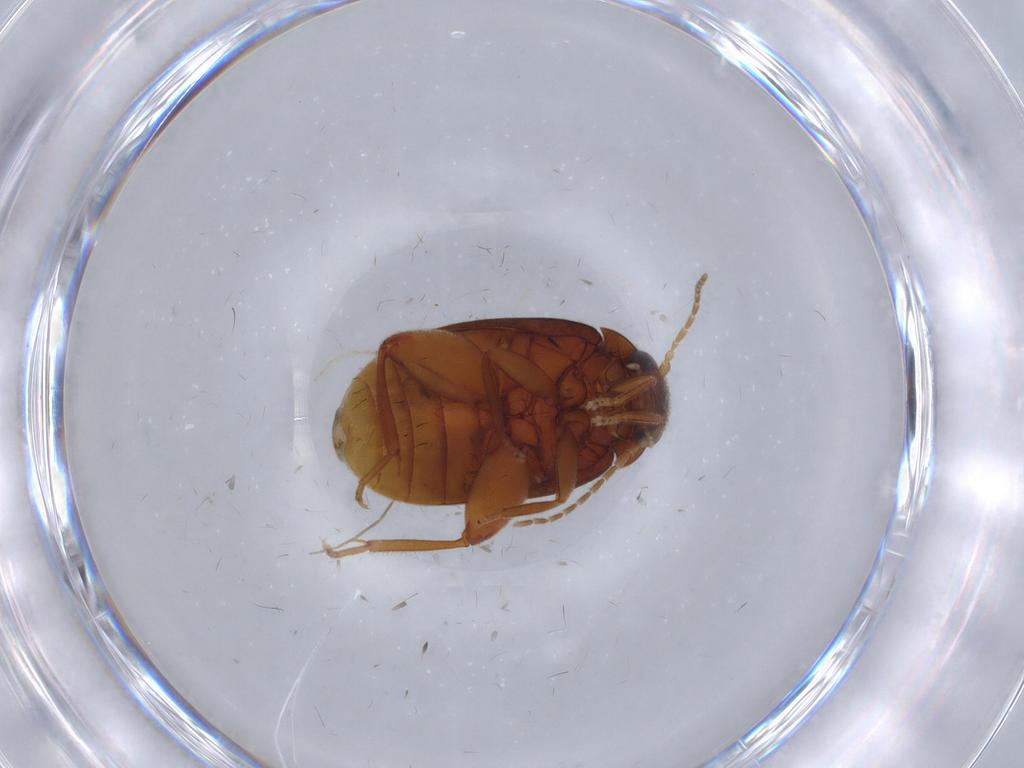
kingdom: Animalia
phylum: Arthropoda
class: Insecta
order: Coleoptera
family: Scirtidae
